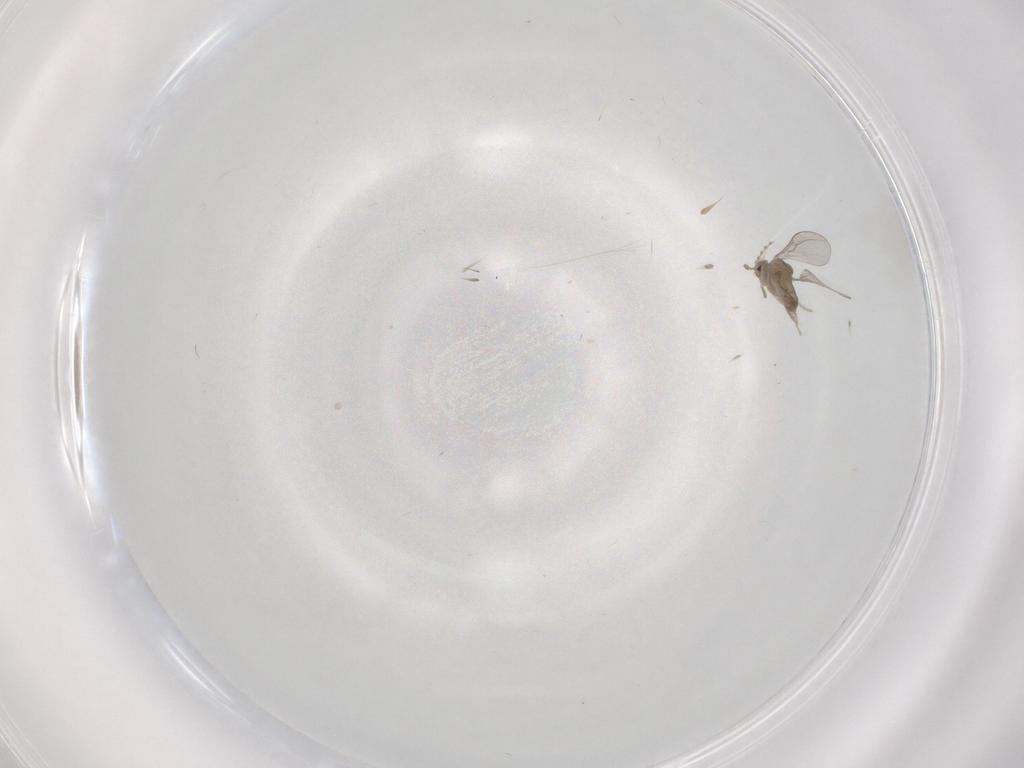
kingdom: Animalia
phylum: Arthropoda
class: Insecta
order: Diptera
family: Cecidomyiidae
